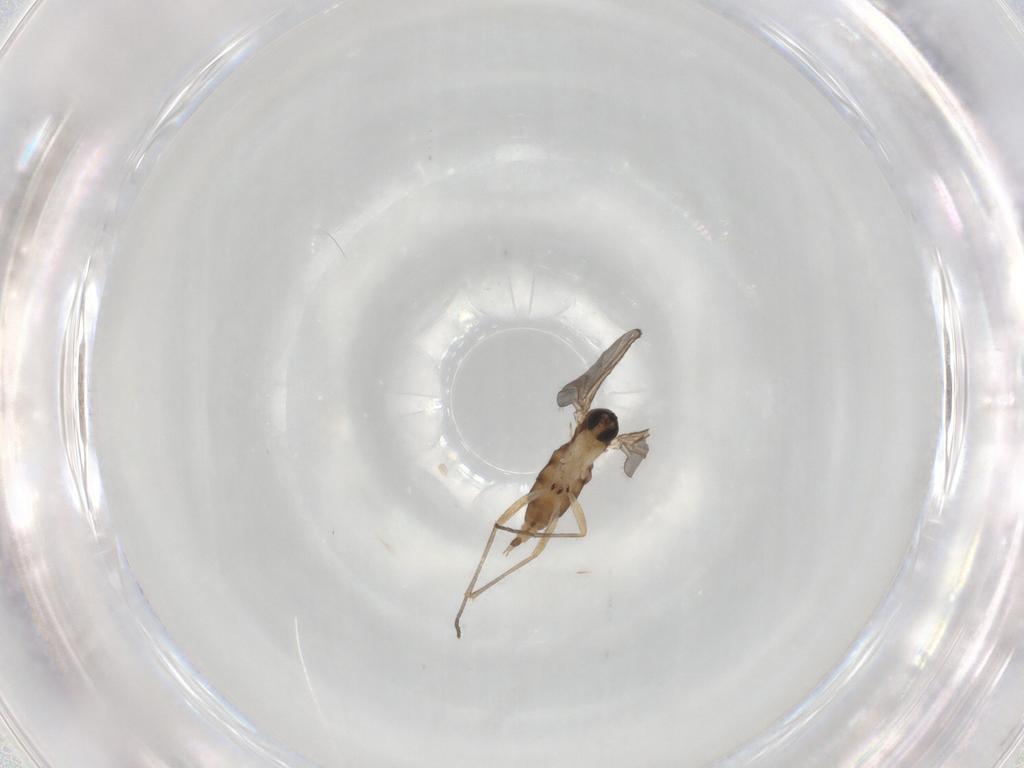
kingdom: Animalia
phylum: Arthropoda
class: Insecta
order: Diptera
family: Sciaridae
